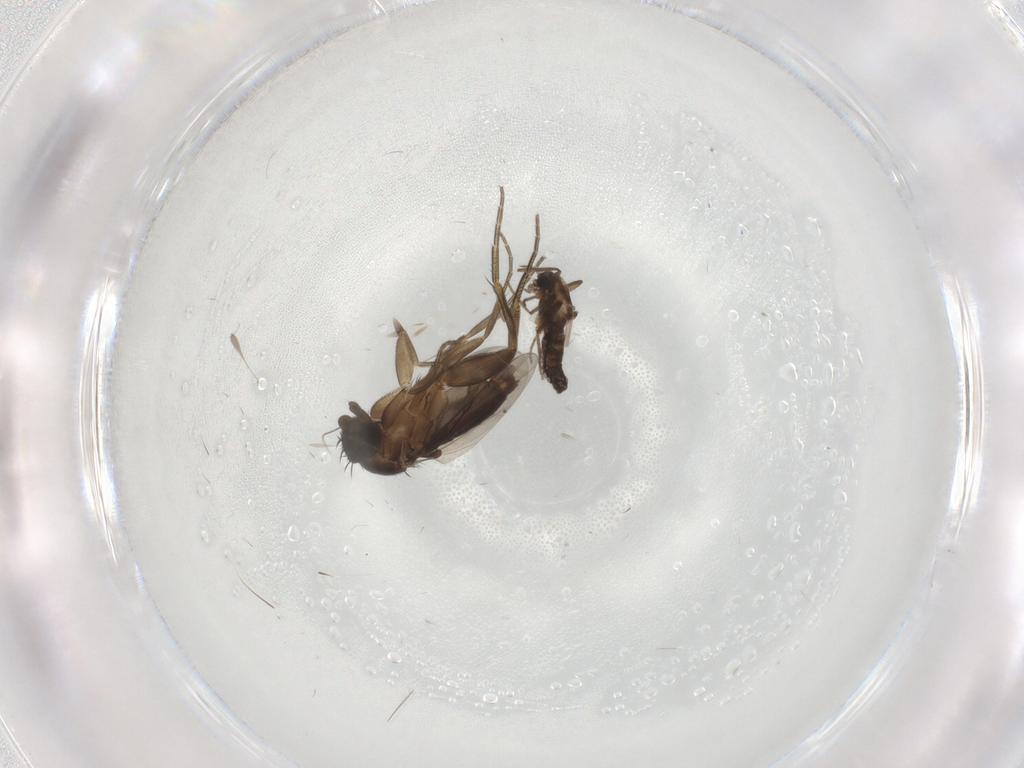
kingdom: Animalia
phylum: Arthropoda
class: Insecta
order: Diptera
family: Phoridae
